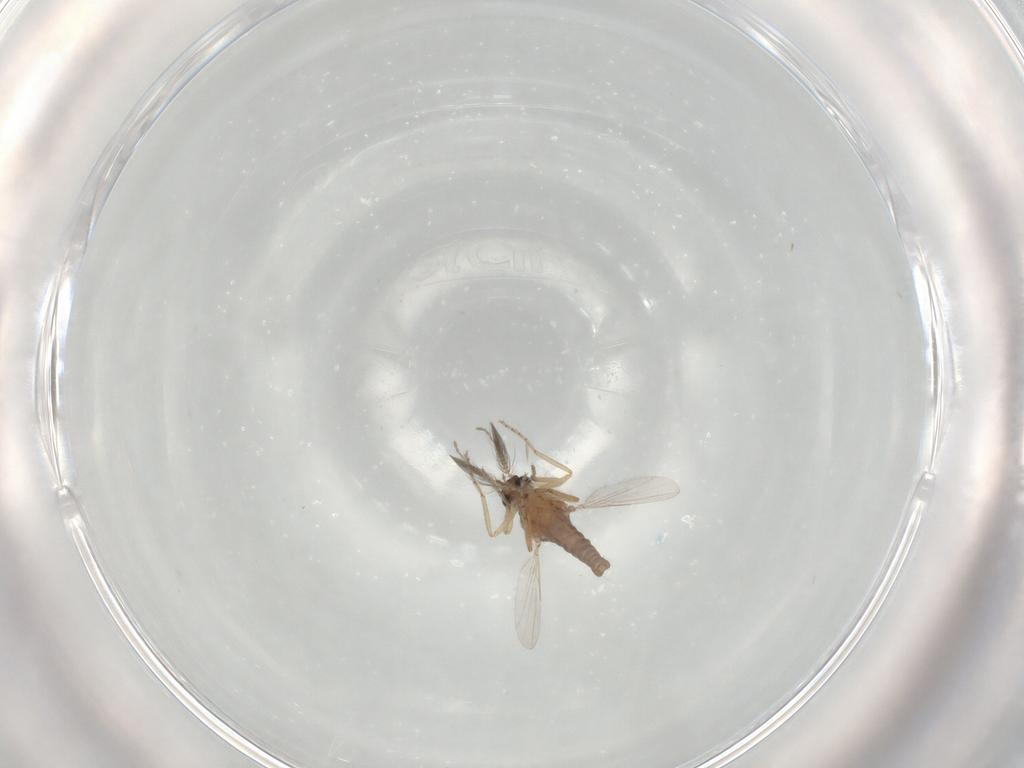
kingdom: Animalia
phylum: Arthropoda
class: Insecta
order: Diptera
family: Ceratopogonidae
